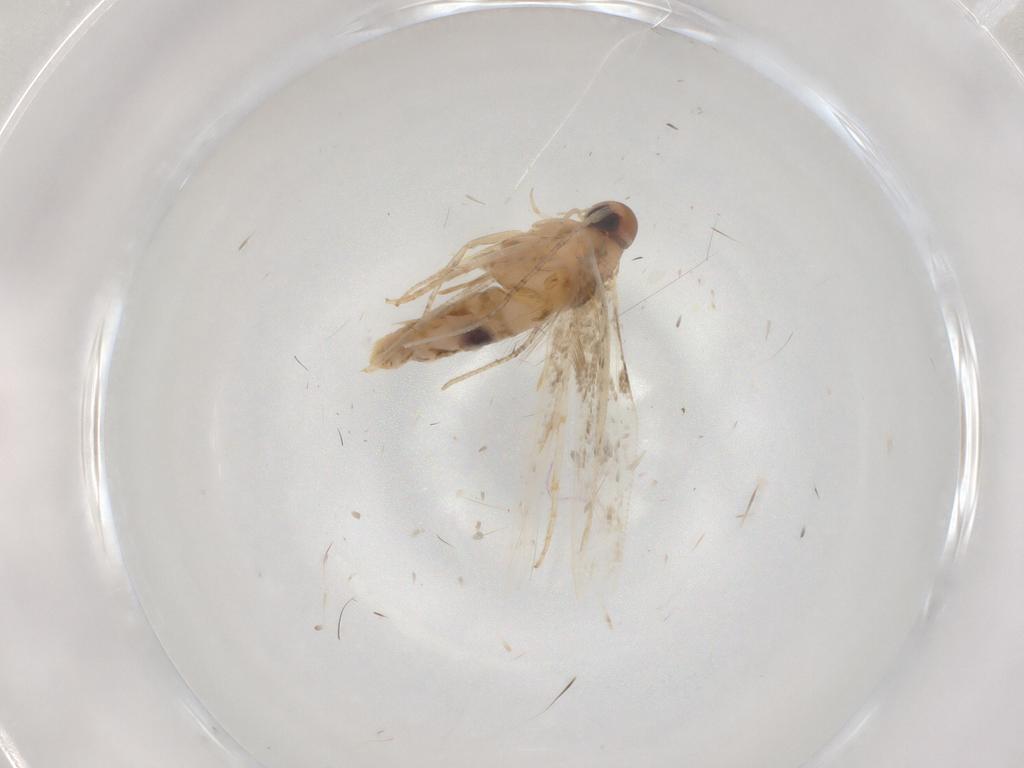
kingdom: Animalia
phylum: Arthropoda
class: Insecta
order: Lepidoptera
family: Cosmopterigidae
